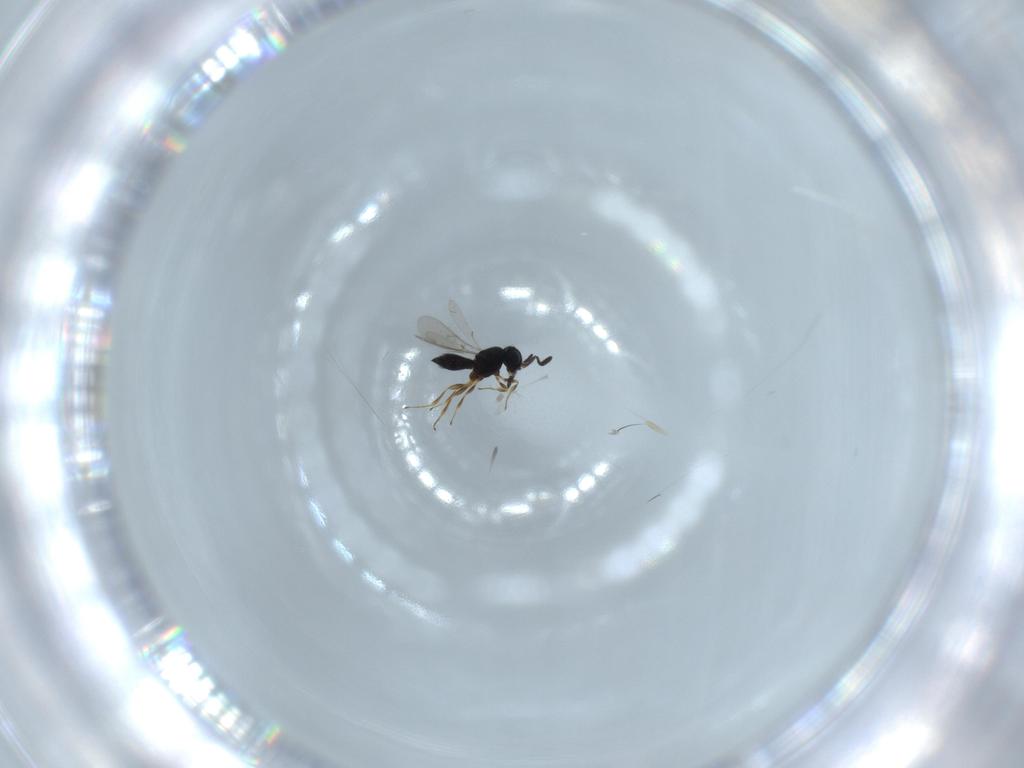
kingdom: Animalia
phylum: Arthropoda
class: Insecta
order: Hymenoptera
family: Scelionidae
